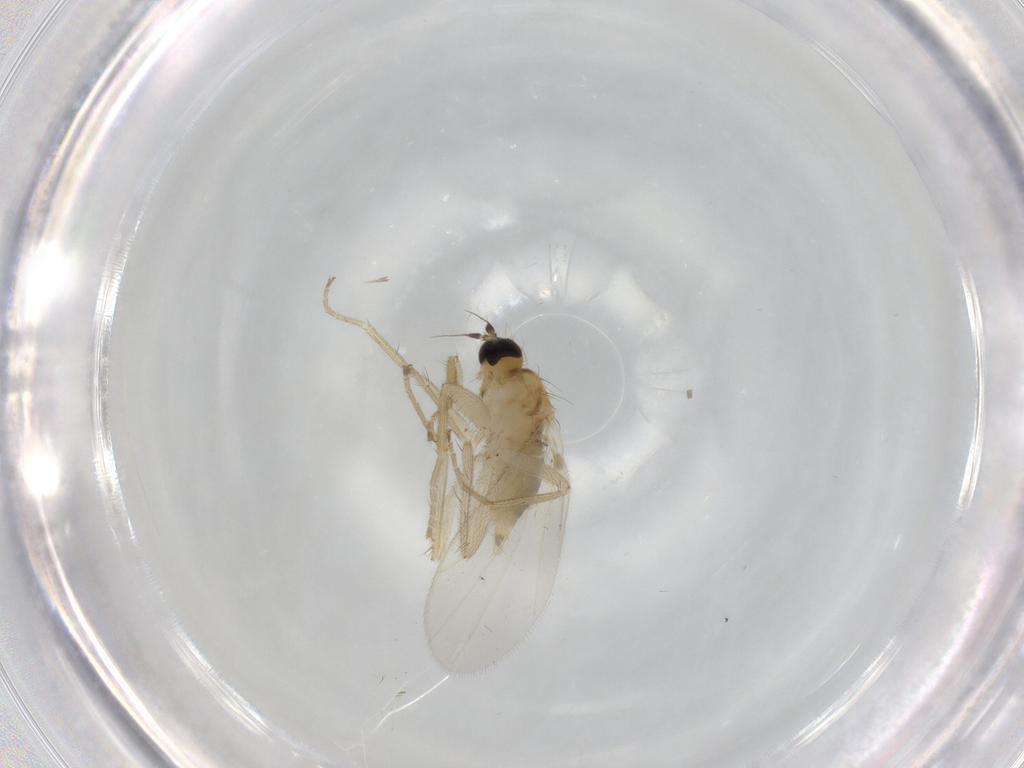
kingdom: Animalia
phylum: Arthropoda
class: Insecta
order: Diptera
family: Hybotidae
